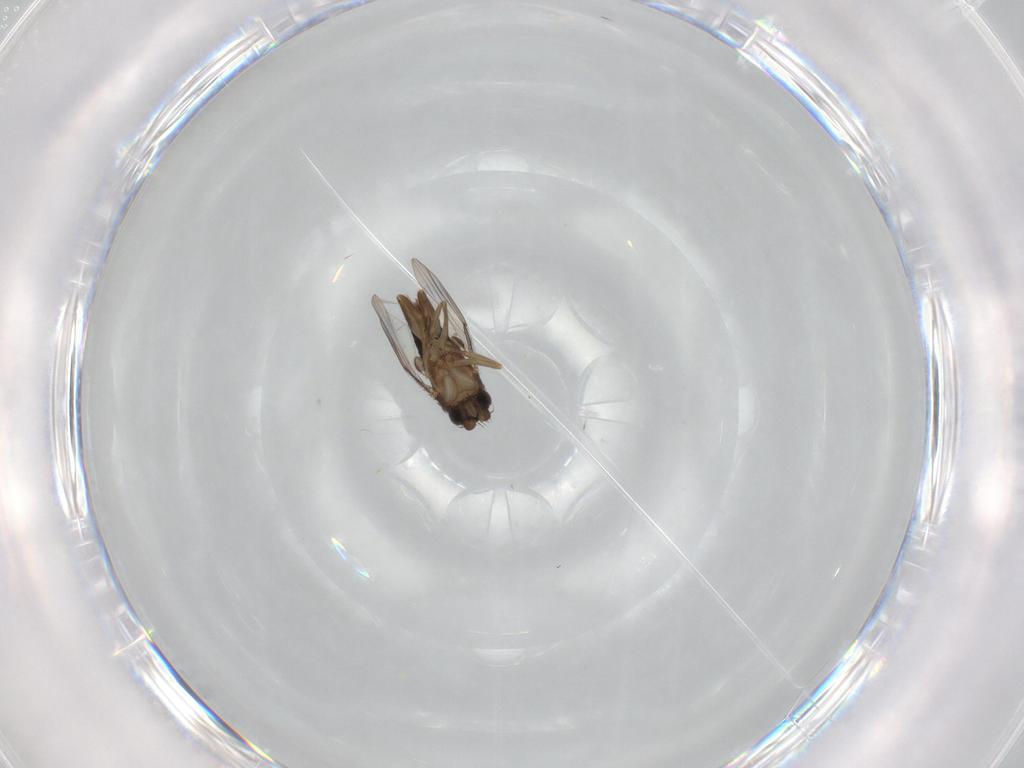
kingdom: Animalia
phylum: Arthropoda
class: Insecta
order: Diptera
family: Phoridae
